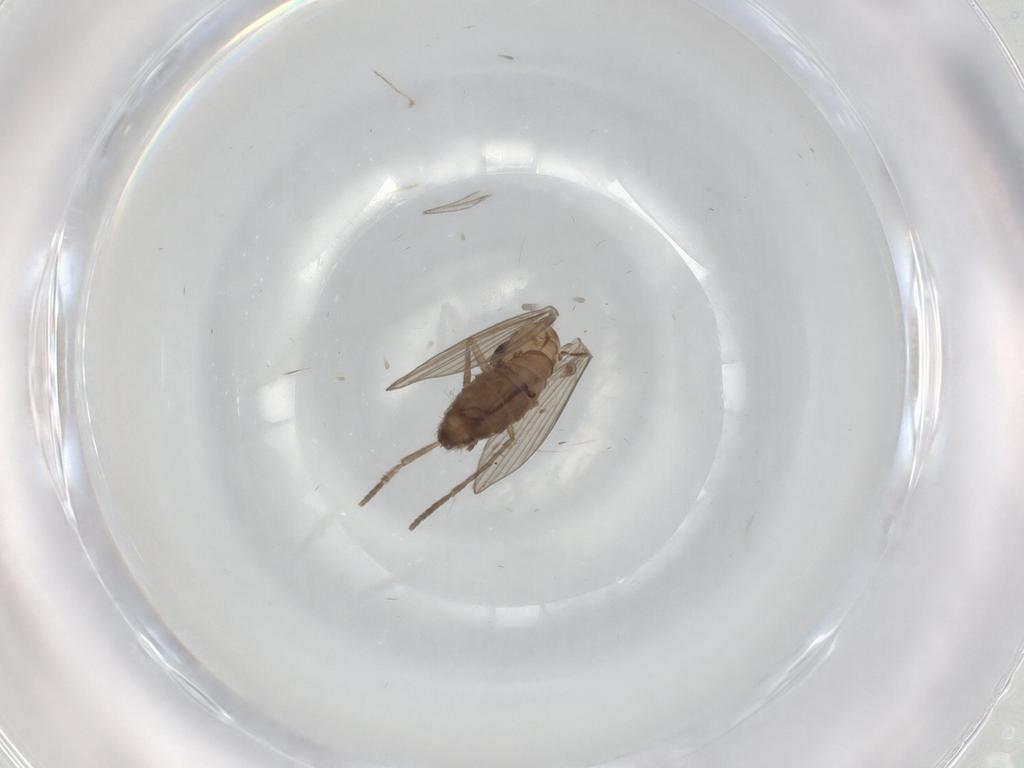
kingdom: Animalia
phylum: Arthropoda
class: Insecta
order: Diptera
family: Psychodidae
